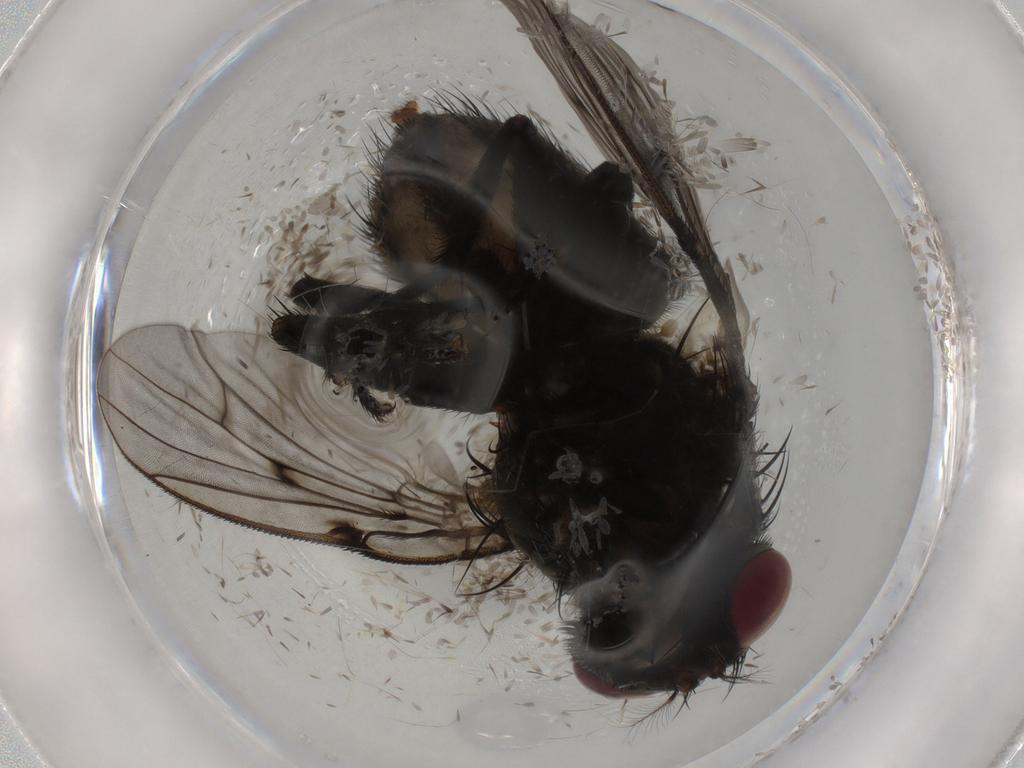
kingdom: Animalia
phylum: Arthropoda
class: Insecta
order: Diptera
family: Muscidae
